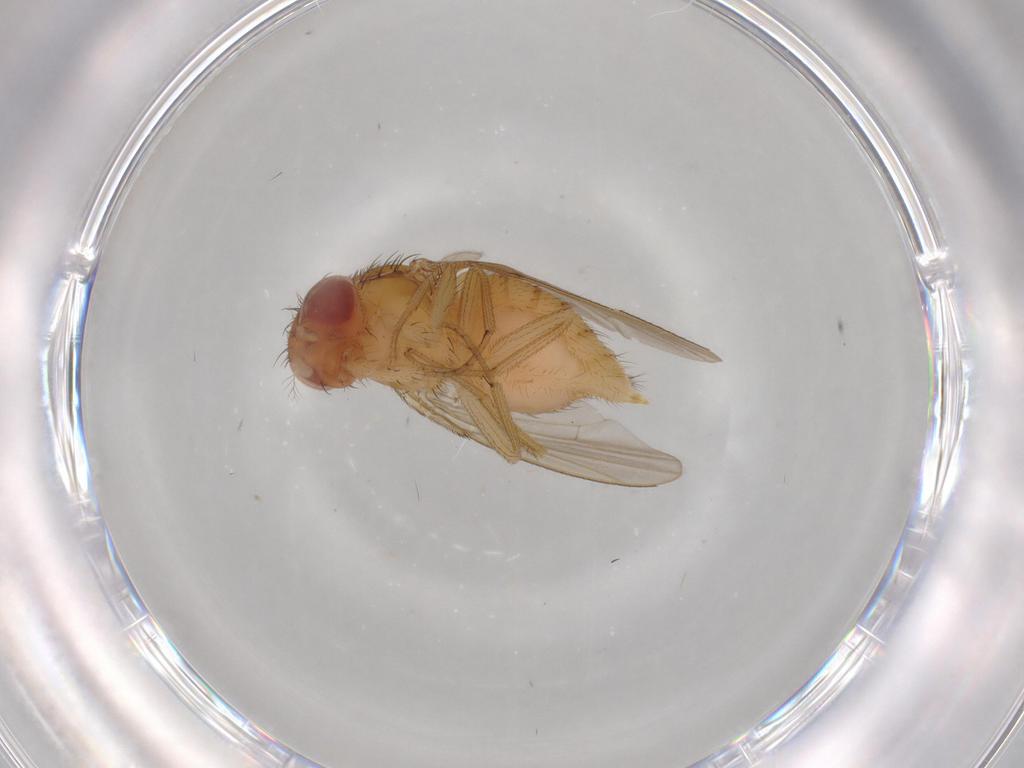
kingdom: Animalia
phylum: Arthropoda
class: Insecta
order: Diptera
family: Drosophilidae
